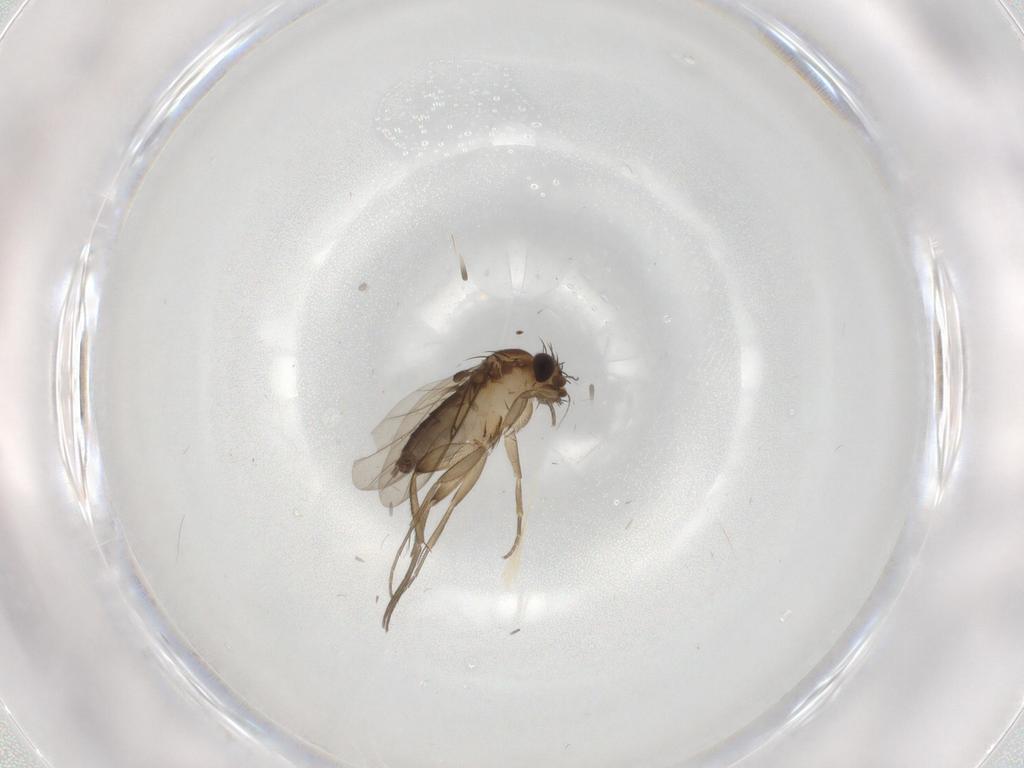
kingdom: Animalia
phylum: Arthropoda
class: Insecta
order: Diptera
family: Phoridae
